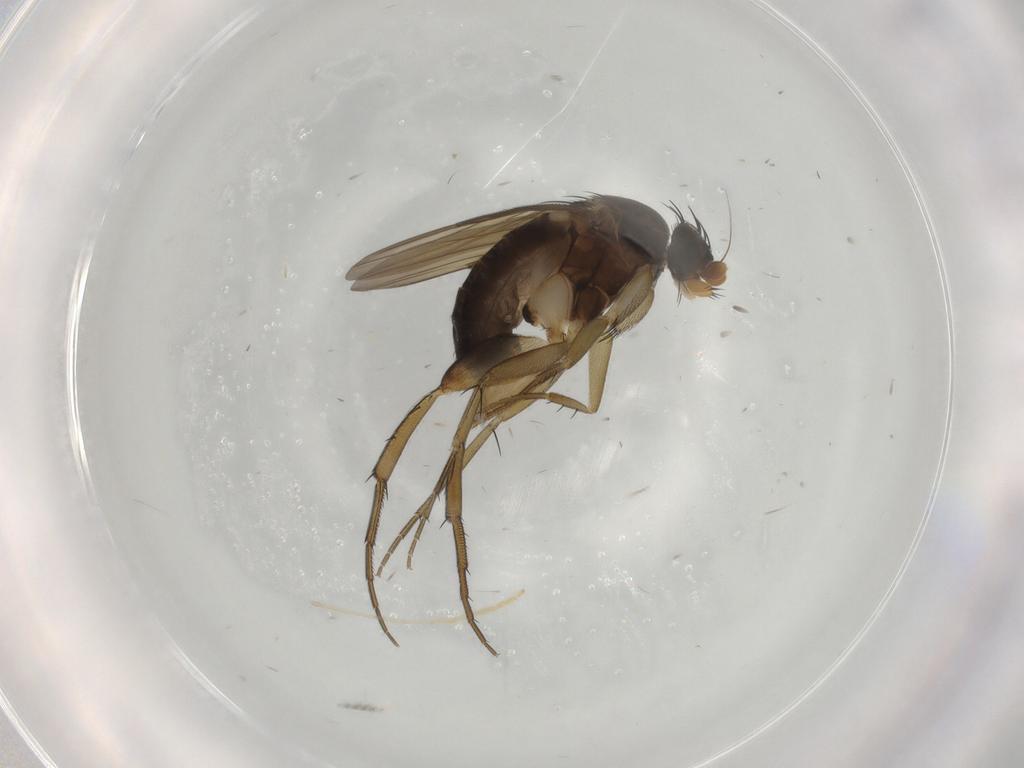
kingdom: Animalia
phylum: Arthropoda
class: Insecta
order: Diptera
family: Phoridae
